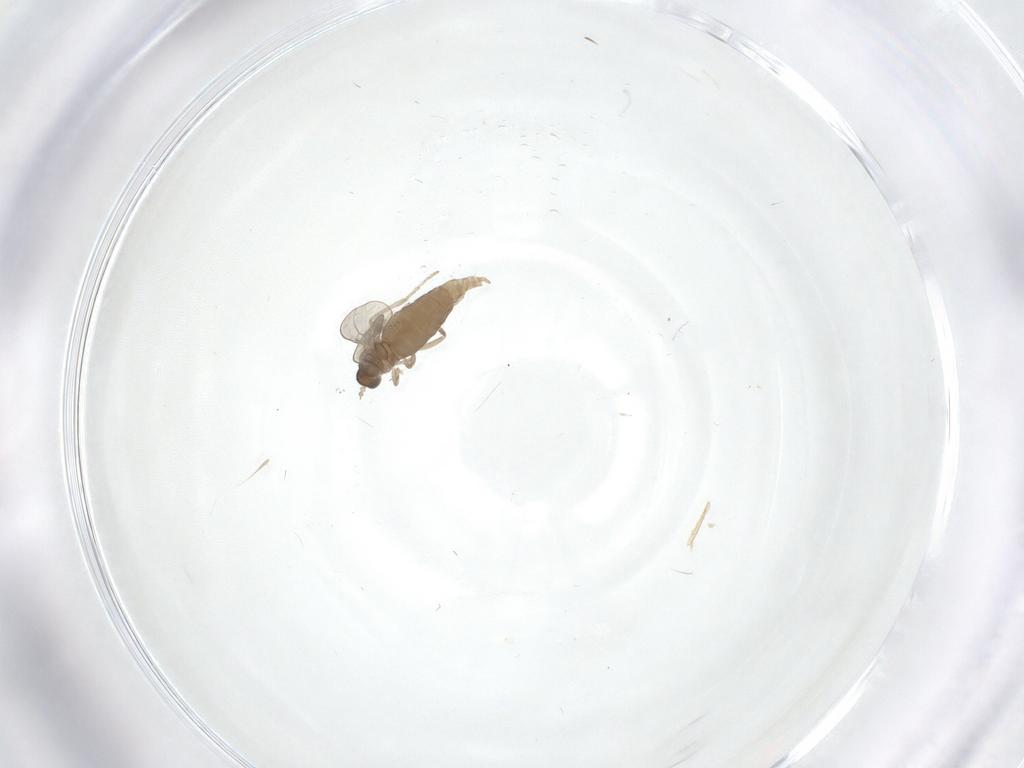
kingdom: Animalia
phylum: Arthropoda
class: Insecta
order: Diptera
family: Cecidomyiidae
